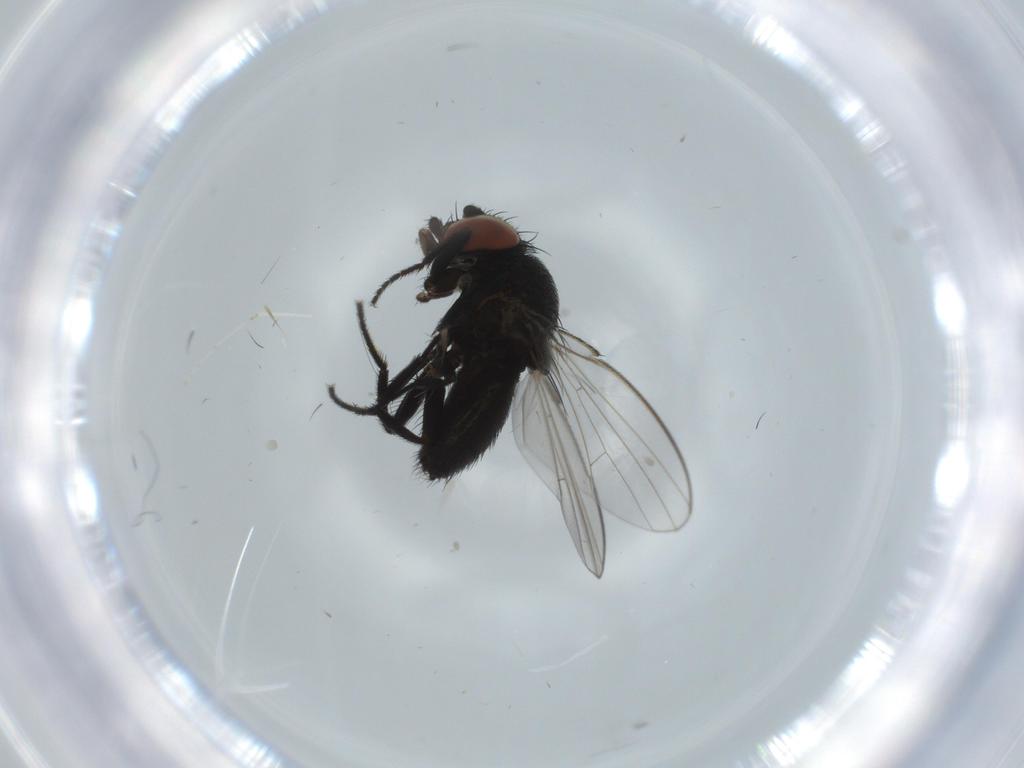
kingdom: Animalia
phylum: Arthropoda
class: Insecta
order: Diptera
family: Milichiidae
